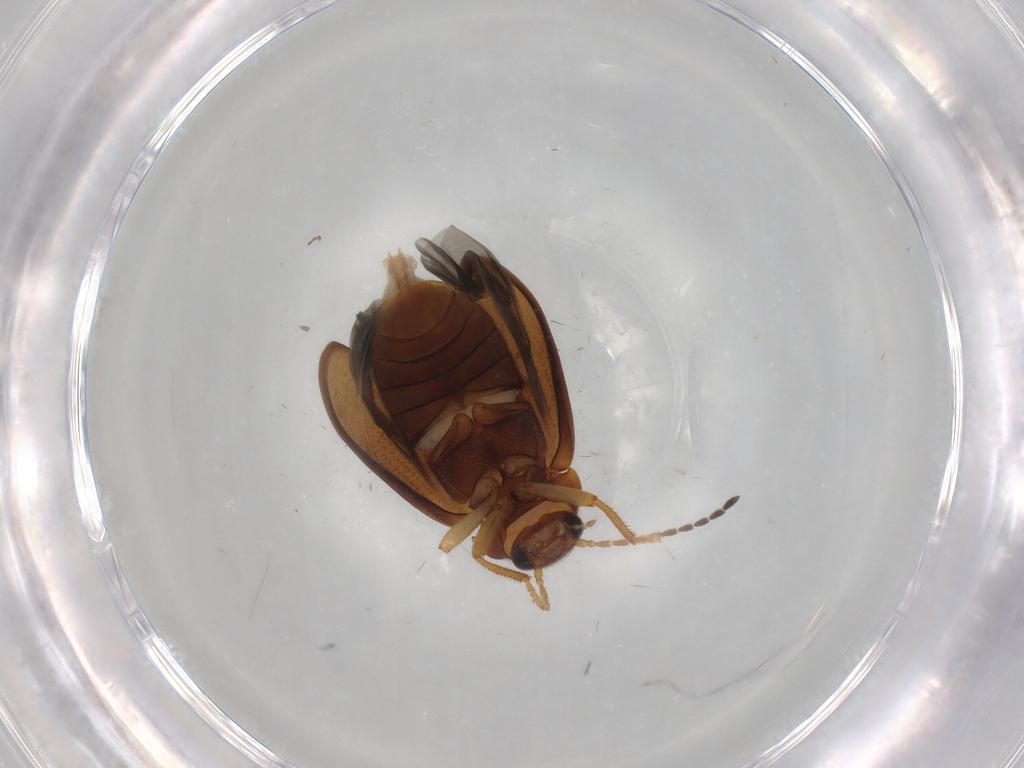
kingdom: Animalia
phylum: Arthropoda
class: Insecta
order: Coleoptera
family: Ptilodactylidae
